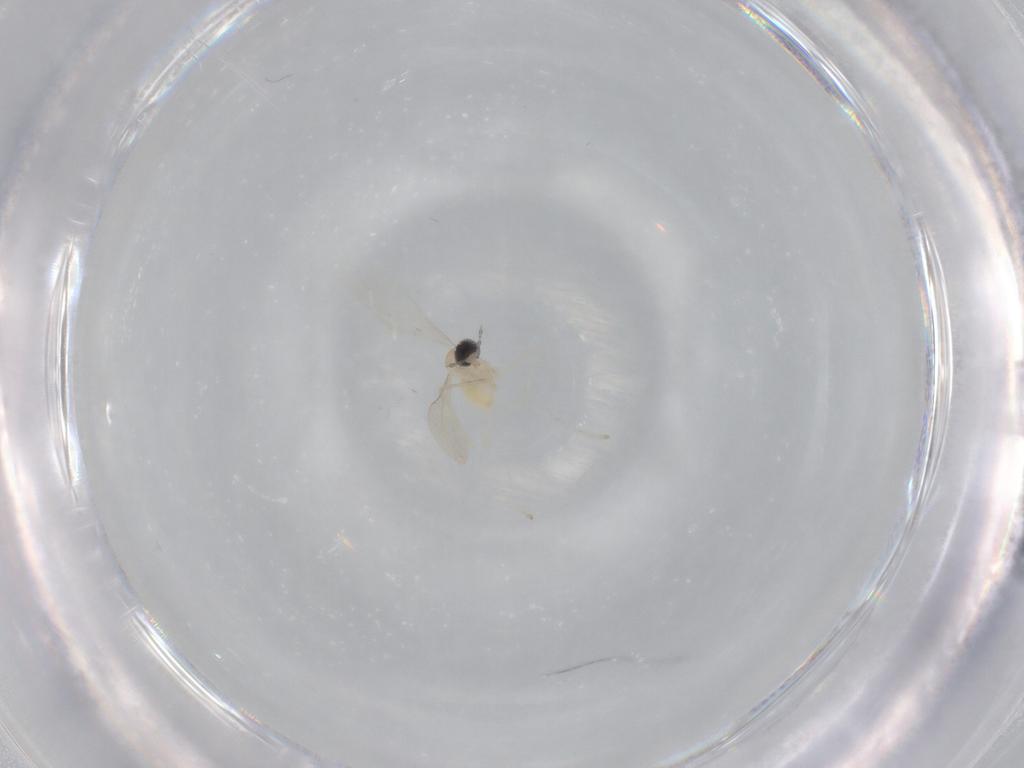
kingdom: Animalia
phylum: Arthropoda
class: Insecta
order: Diptera
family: Cecidomyiidae
